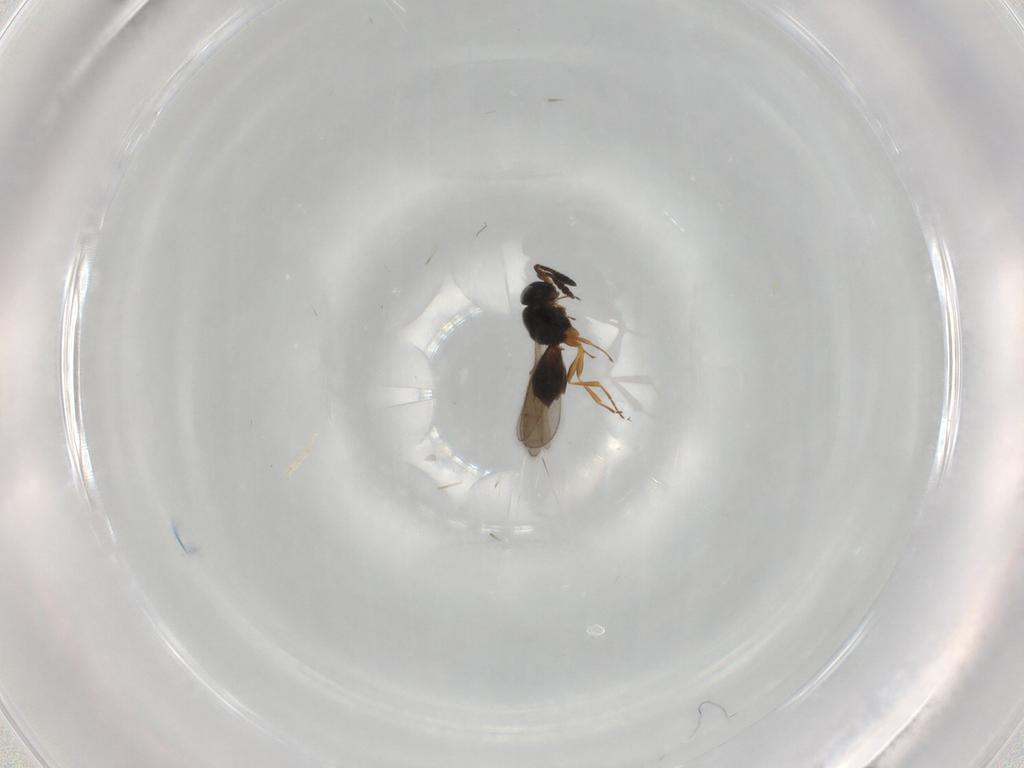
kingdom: Animalia
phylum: Arthropoda
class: Insecta
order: Hymenoptera
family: Scelionidae
